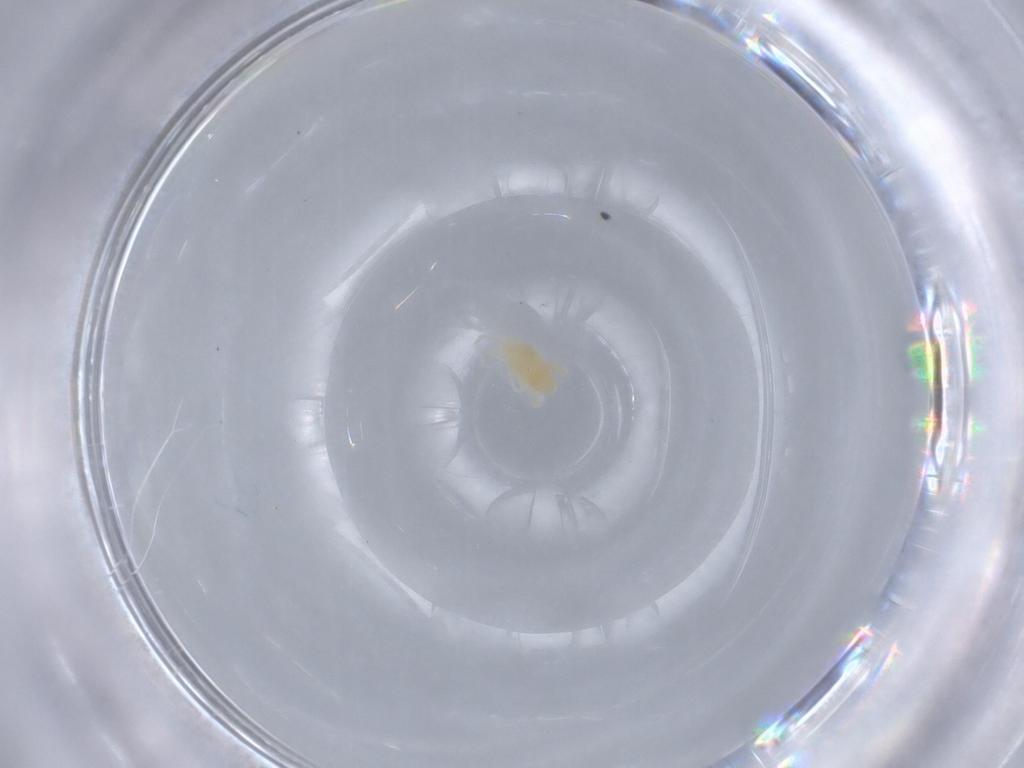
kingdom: Animalia
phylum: Arthropoda
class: Arachnida
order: Trombidiformes
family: Eupodidae
